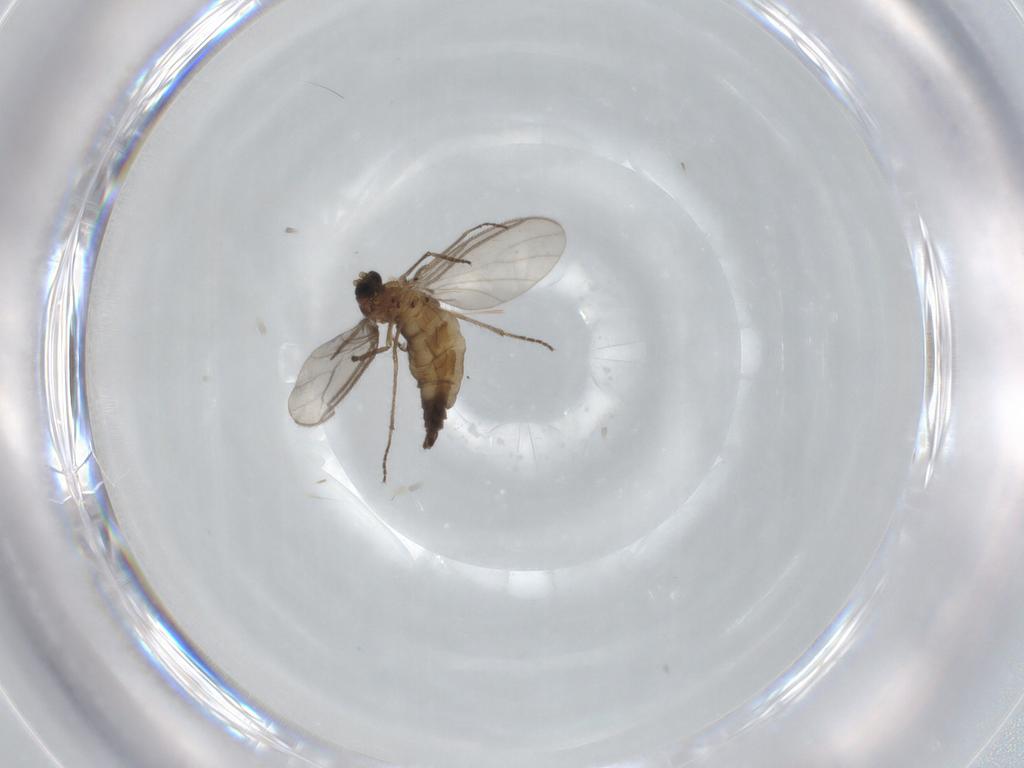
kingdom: Animalia
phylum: Arthropoda
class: Insecta
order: Diptera
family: Sciaridae
